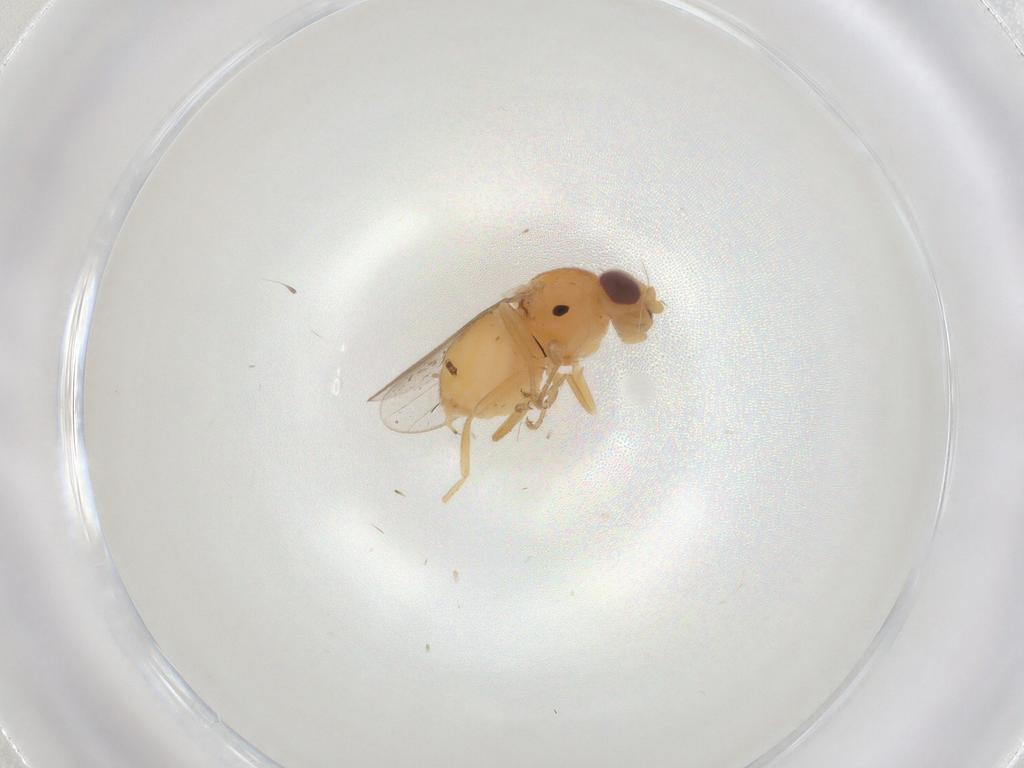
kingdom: Animalia
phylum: Arthropoda
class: Insecta
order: Diptera
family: Chloropidae
